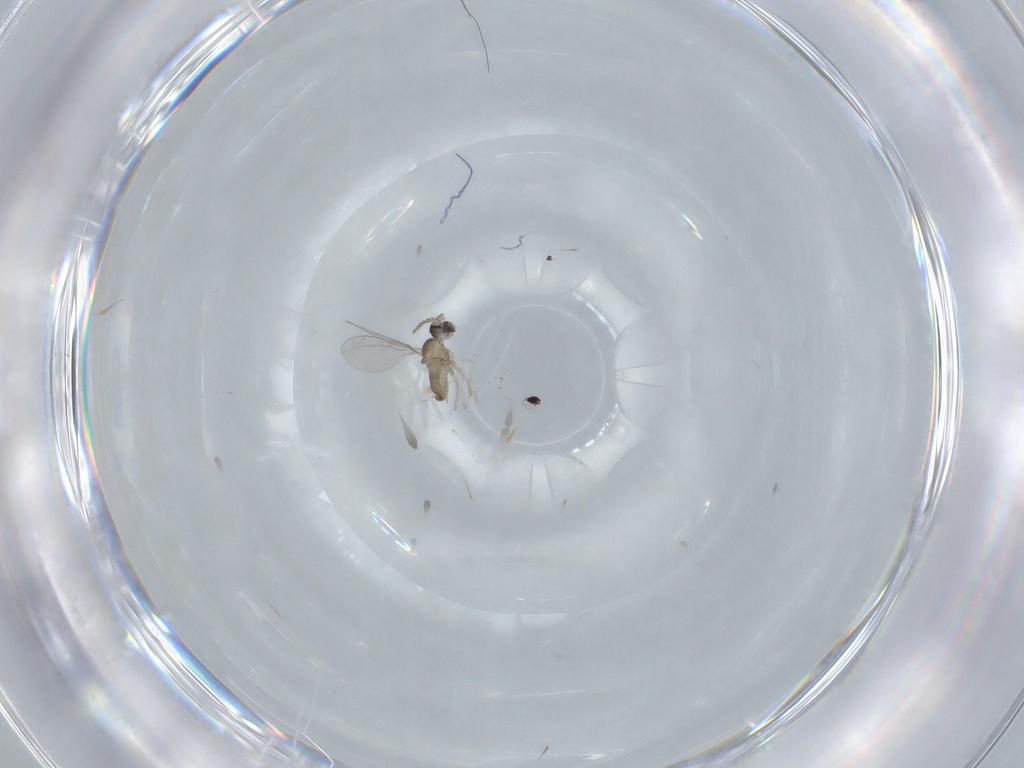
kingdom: Animalia
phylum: Arthropoda
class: Insecta
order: Diptera
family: Cecidomyiidae
